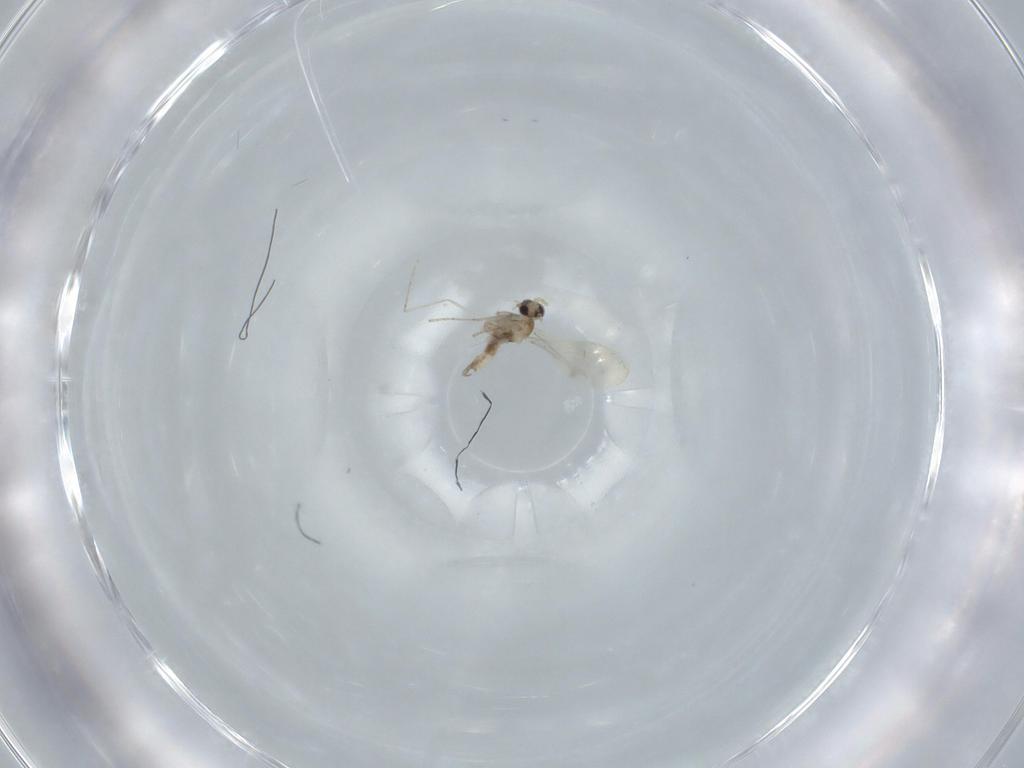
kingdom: Animalia
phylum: Arthropoda
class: Insecta
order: Diptera
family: Cecidomyiidae
